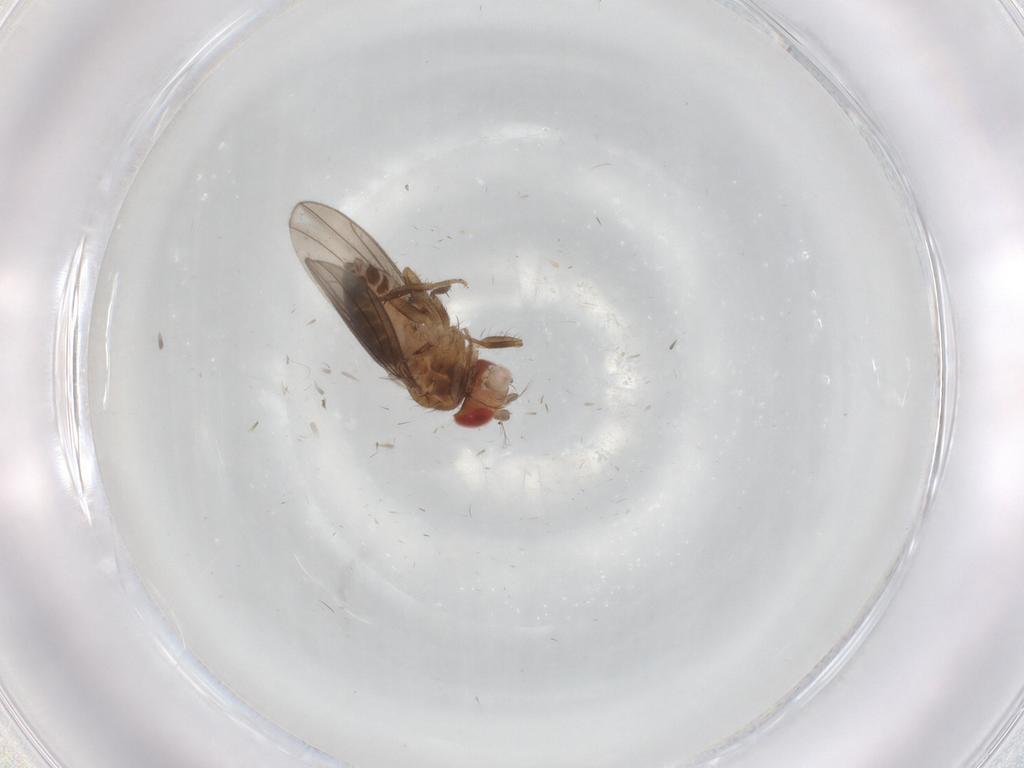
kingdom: Animalia
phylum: Arthropoda
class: Insecta
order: Diptera
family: Drosophilidae
